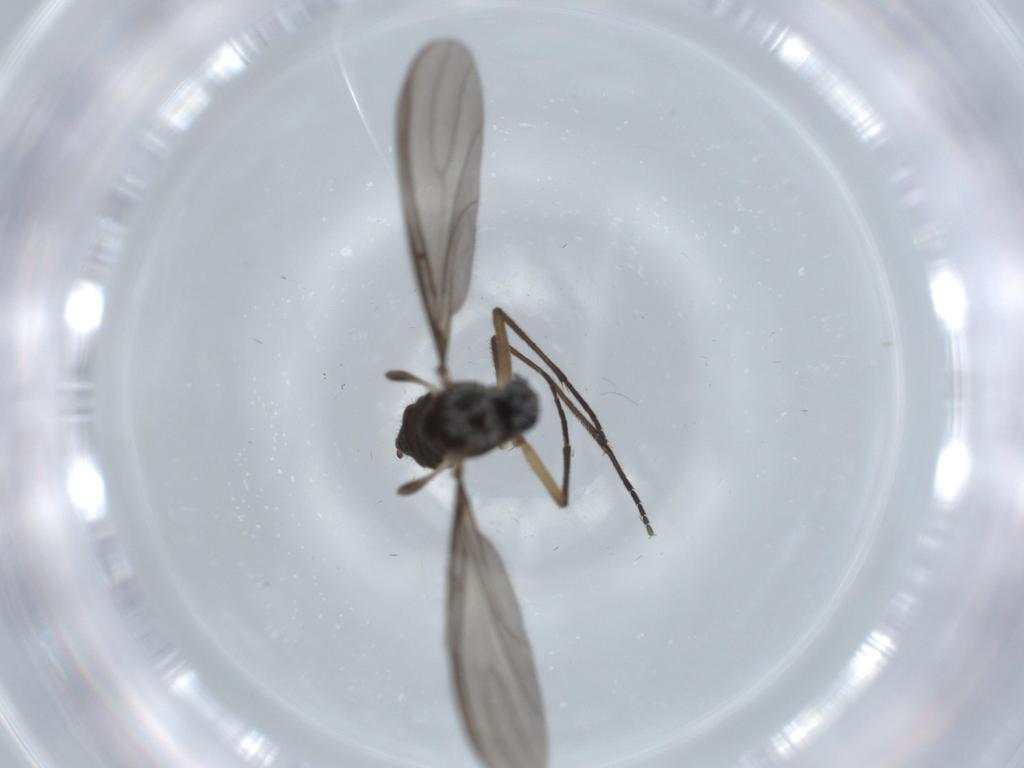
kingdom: Animalia
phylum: Arthropoda
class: Insecta
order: Diptera
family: Sciaridae
